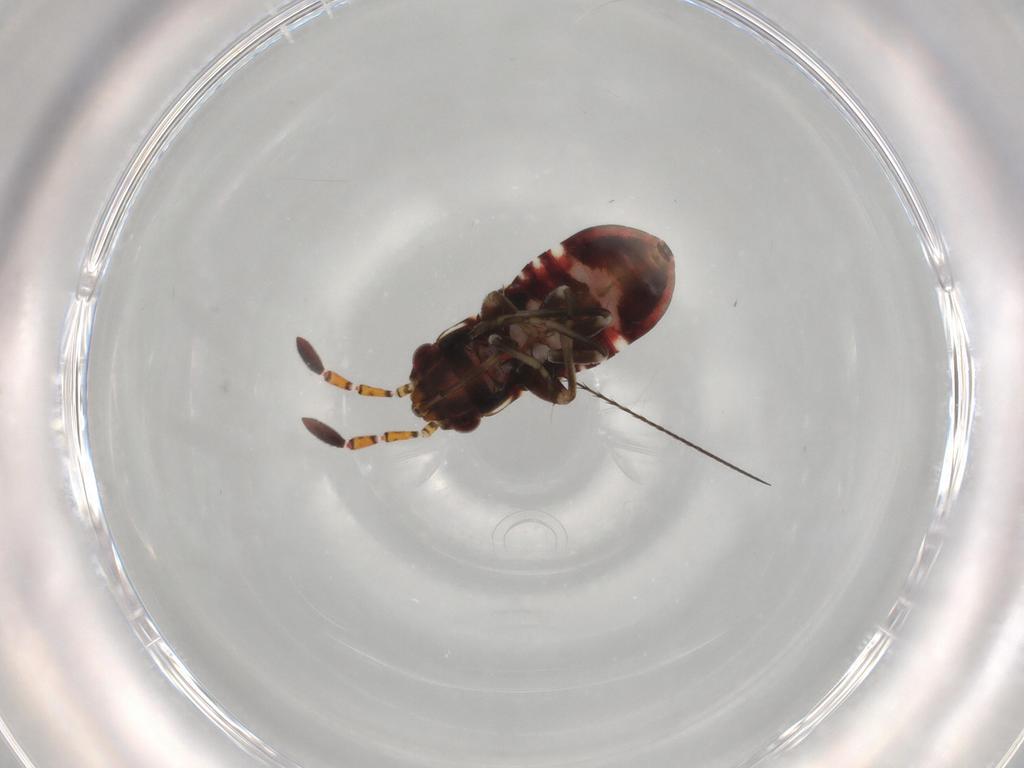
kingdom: Animalia
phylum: Arthropoda
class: Insecta
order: Hemiptera
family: Rhyparochromidae
